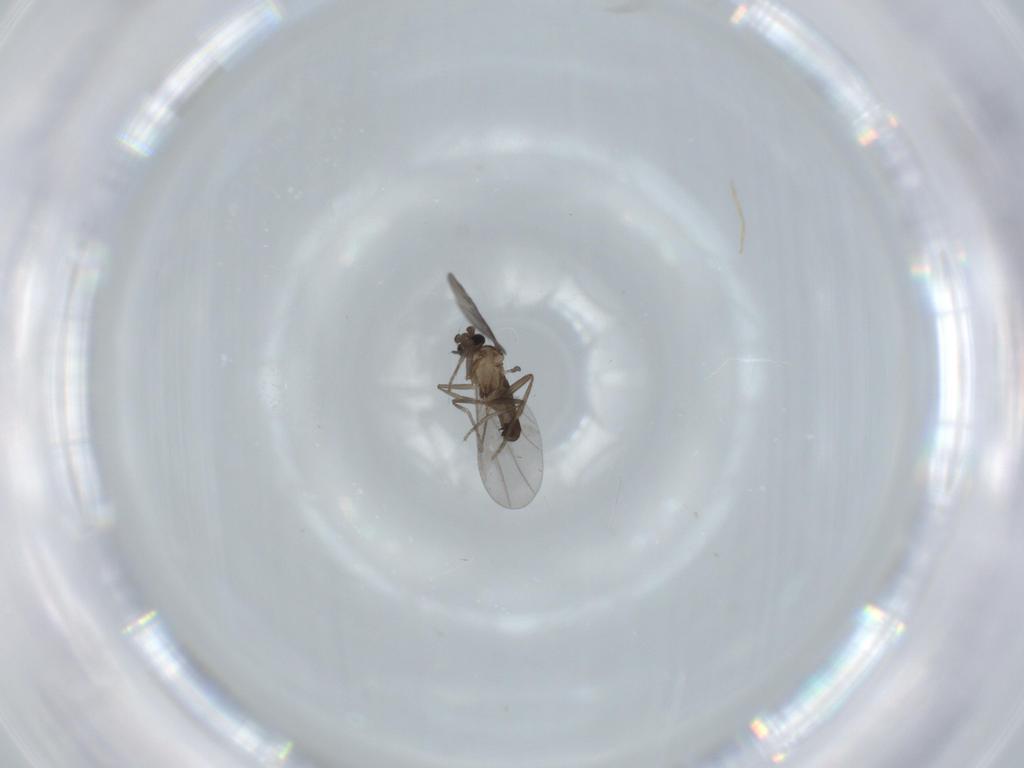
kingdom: Animalia
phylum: Arthropoda
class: Insecta
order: Diptera
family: Phoridae
